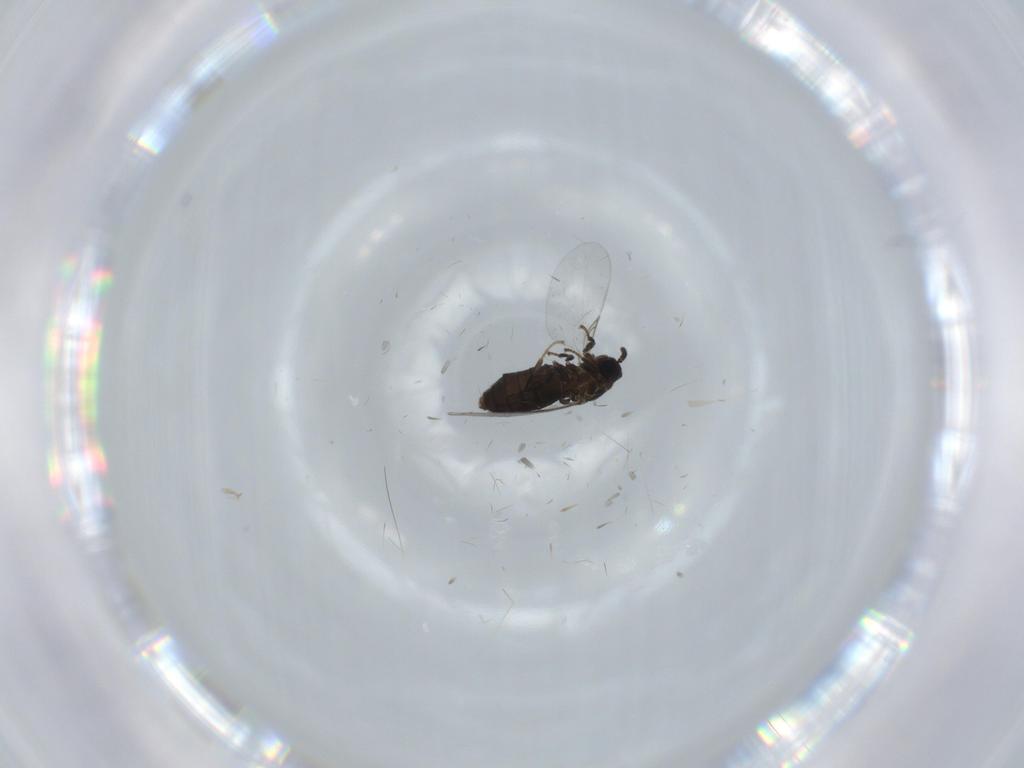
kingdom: Animalia
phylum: Arthropoda
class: Insecta
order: Diptera
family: Scatopsidae
